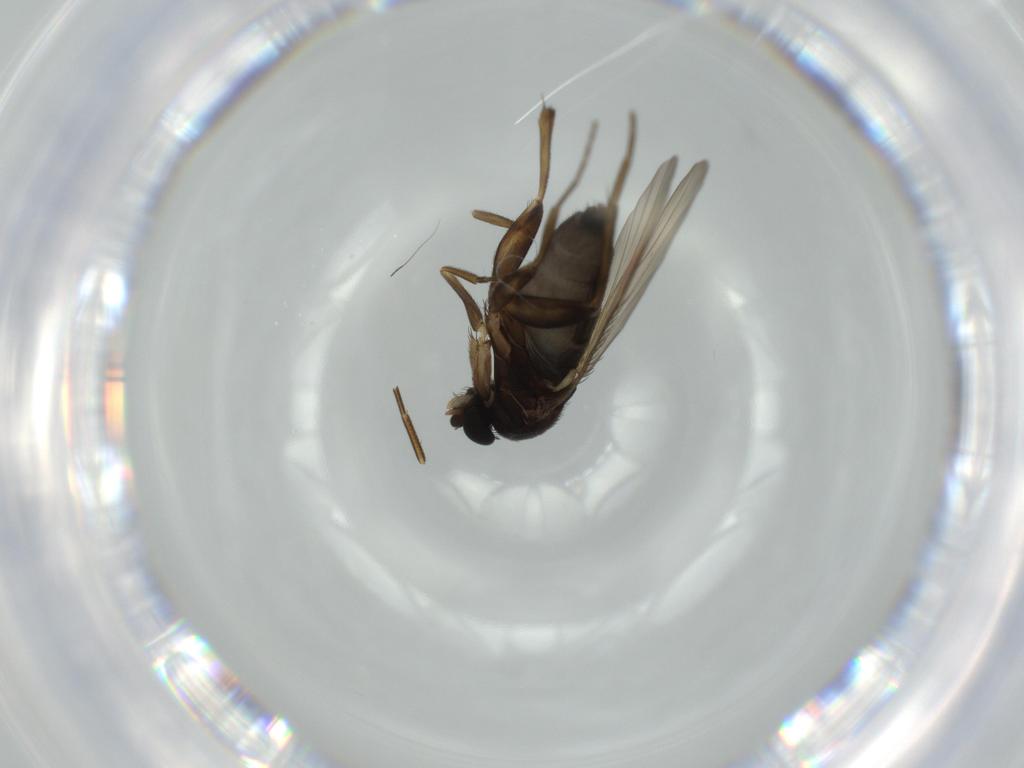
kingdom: Animalia
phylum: Arthropoda
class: Insecta
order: Diptera
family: Phoridae
